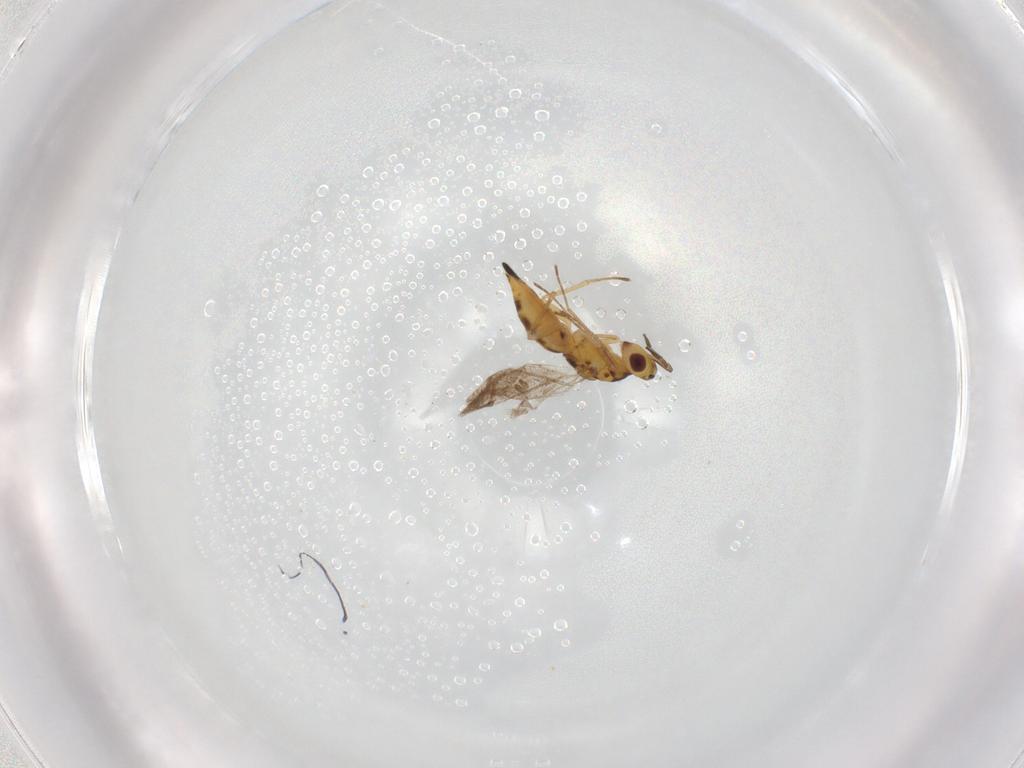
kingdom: Animalia
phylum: Arthropoda
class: Insecta
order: Hymenoptera
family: Eulophidae
